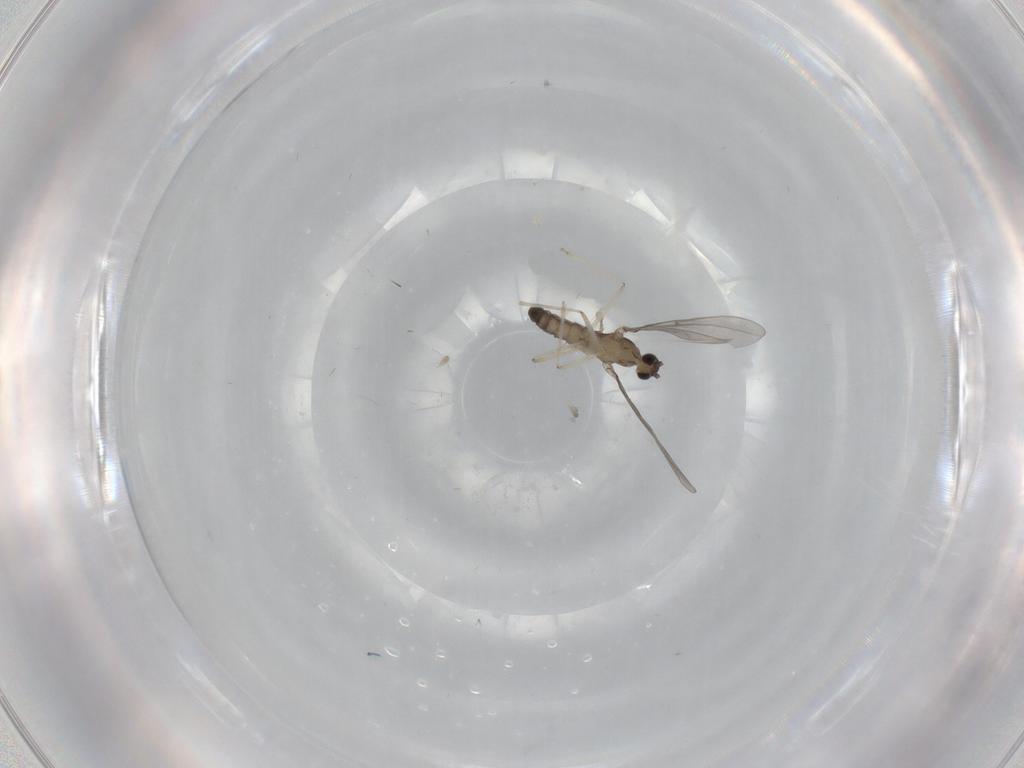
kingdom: Animalia
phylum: Arthropoda
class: Insecta
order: Diptera
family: Cecidomyiidae
